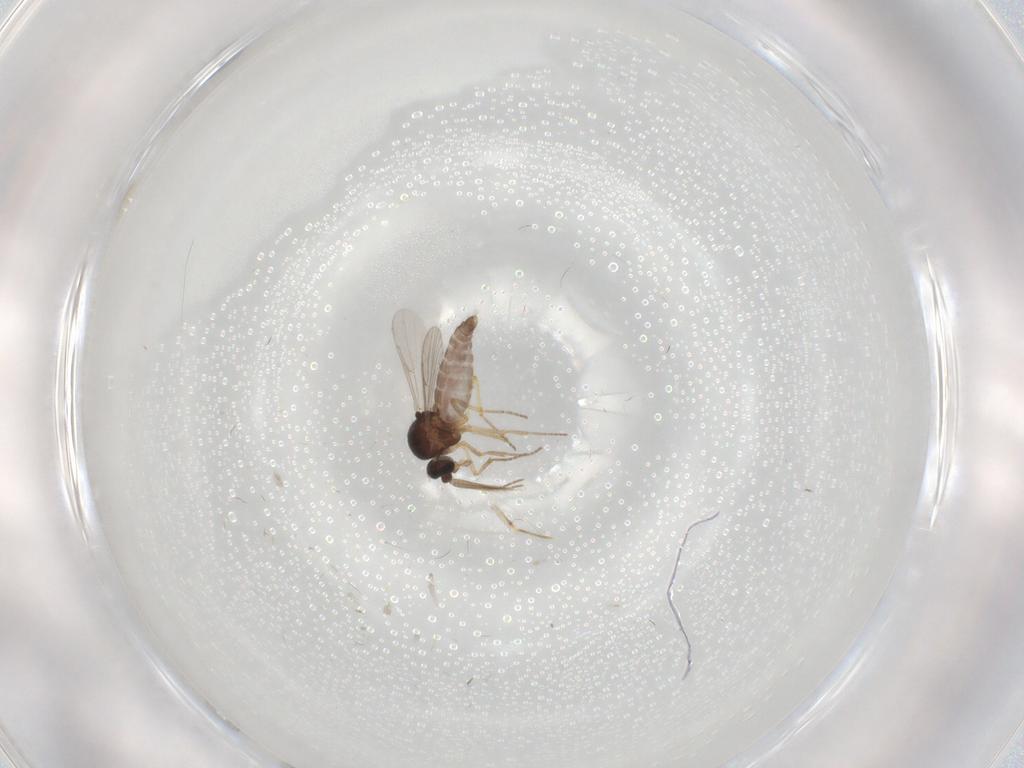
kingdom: Animalia
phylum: Arthropoda
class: Insecta
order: Diptera
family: Ceratopogonidae
